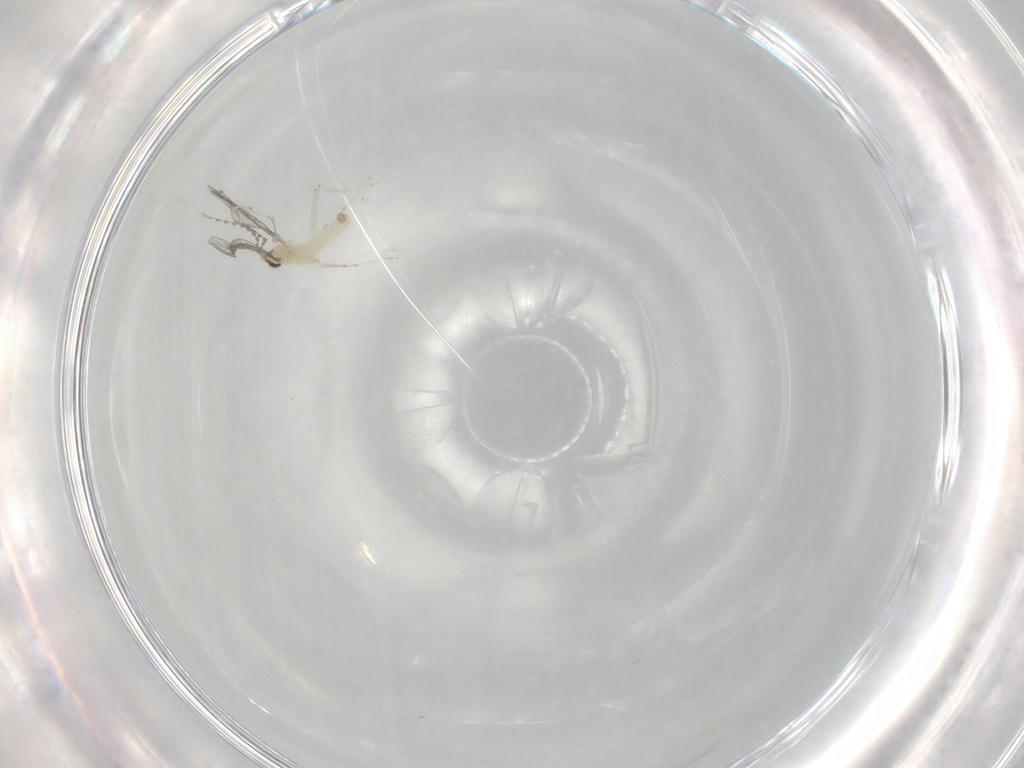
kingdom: Animalia
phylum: Arthropoda
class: Insecta
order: Diptera
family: Cecidomyiidae
